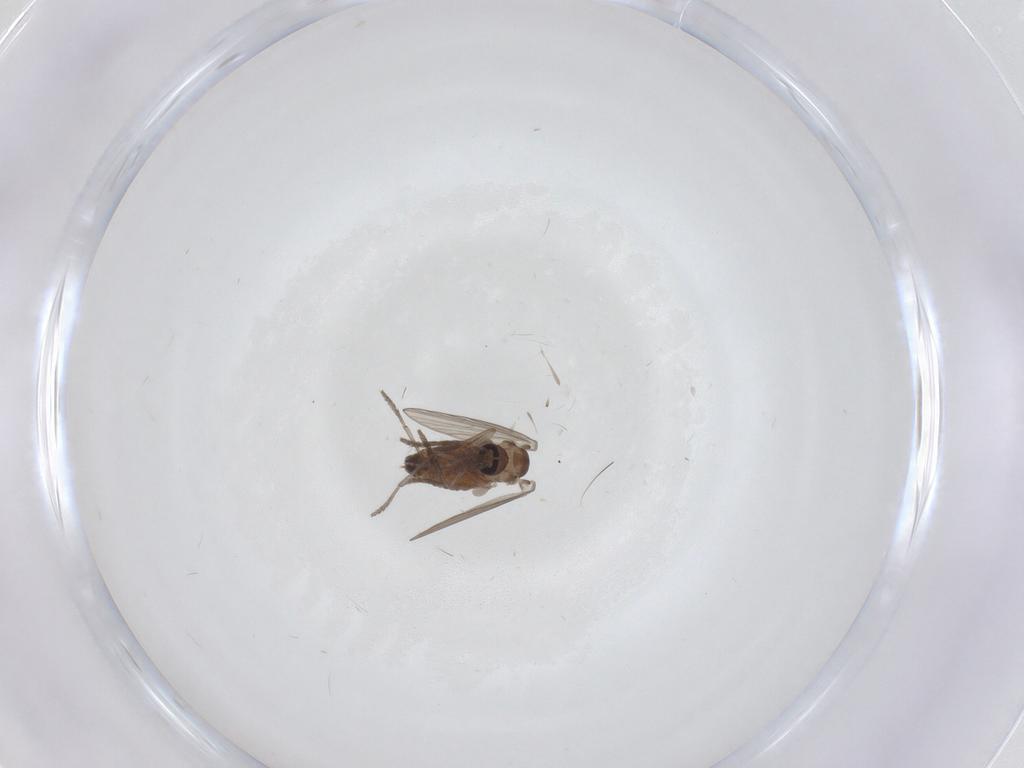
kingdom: Animalia
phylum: Arthropoda
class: Insecta
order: Diptera
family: Psychodidae
